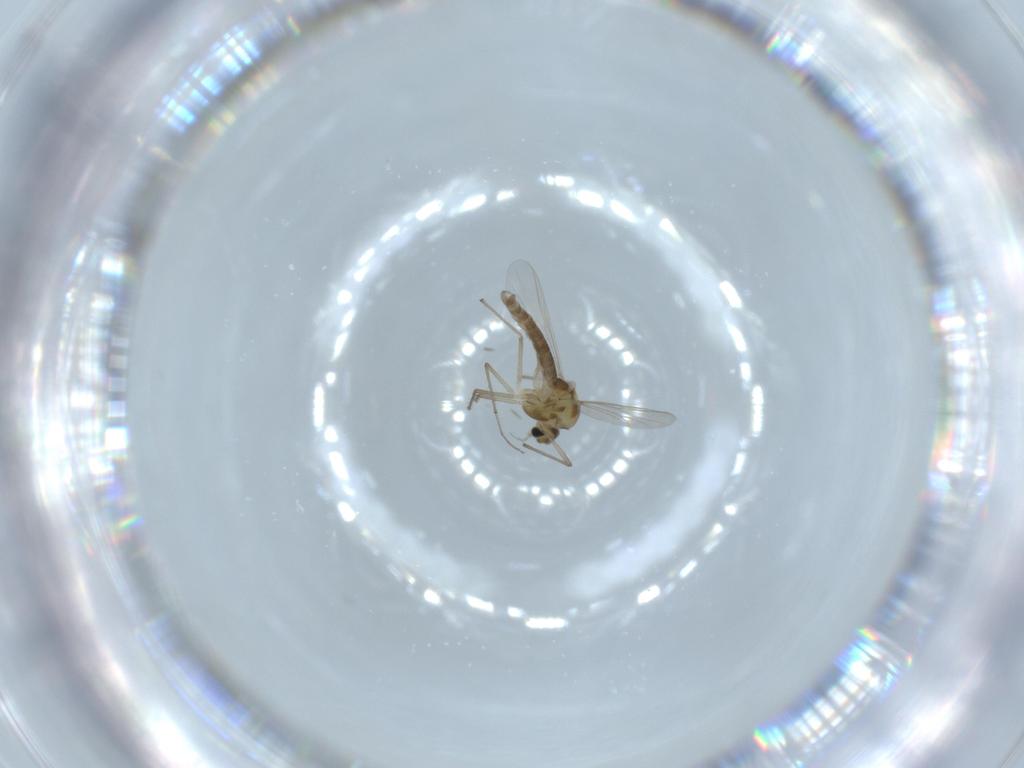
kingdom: Animalia
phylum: Arthropoda
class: Insecta
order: Diptera
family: Chironomidae
